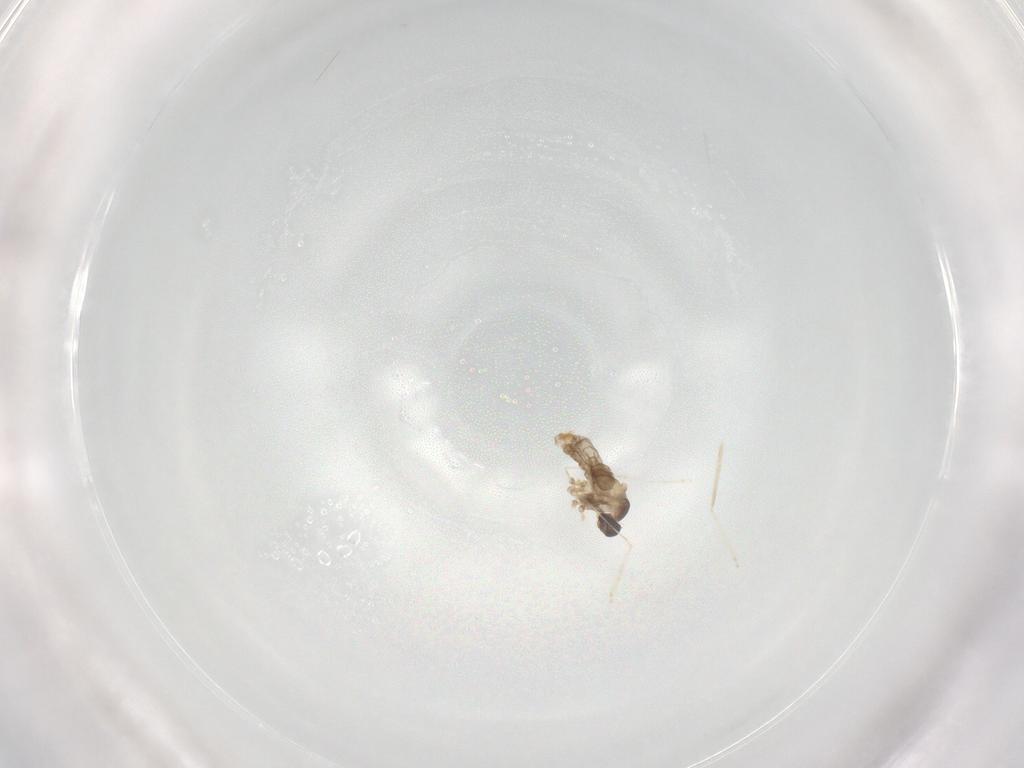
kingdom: Animalia
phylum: Arthropoda
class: Insecta
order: Diptera
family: Cecidomyiidae
